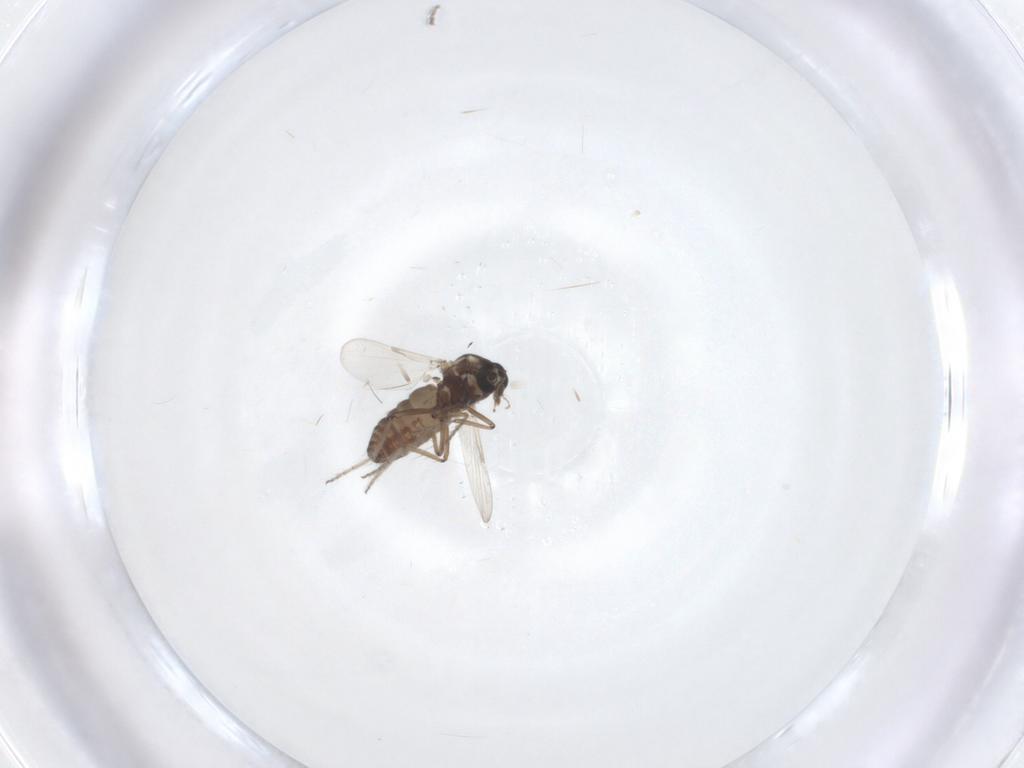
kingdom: Animalia
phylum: Arthropoda
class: Insecta
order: Diptera
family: Ceratopogonidae
